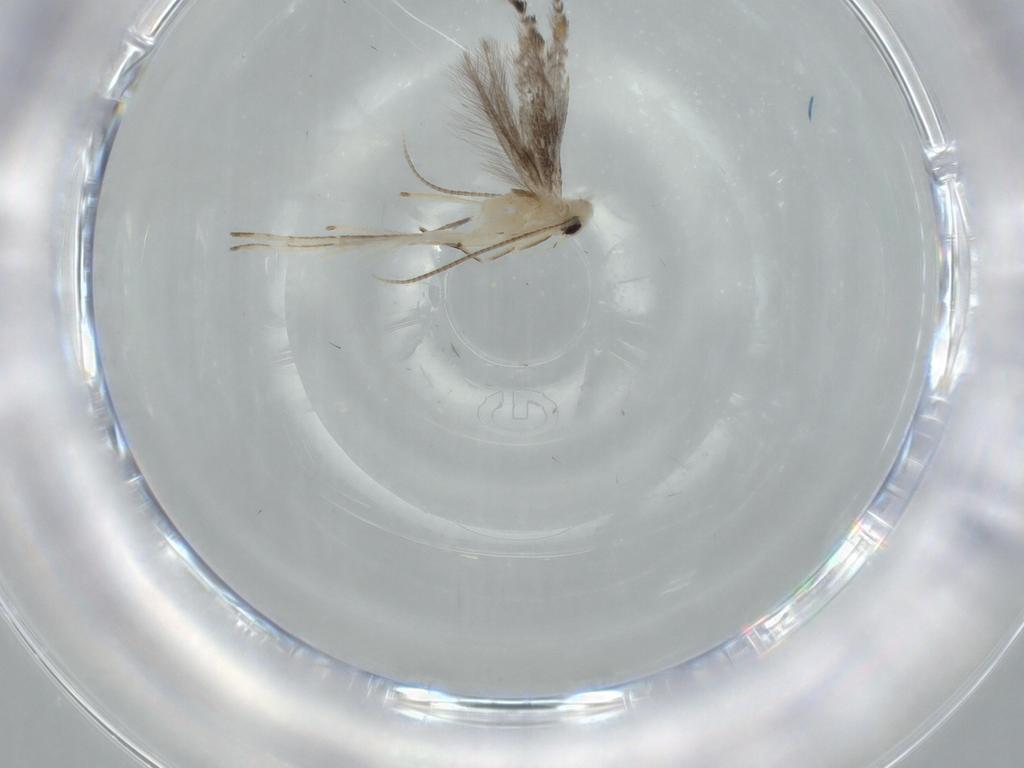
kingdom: Animalia
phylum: Arthropoda
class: Insecta
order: Lepidoptera
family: Gracillariidae
